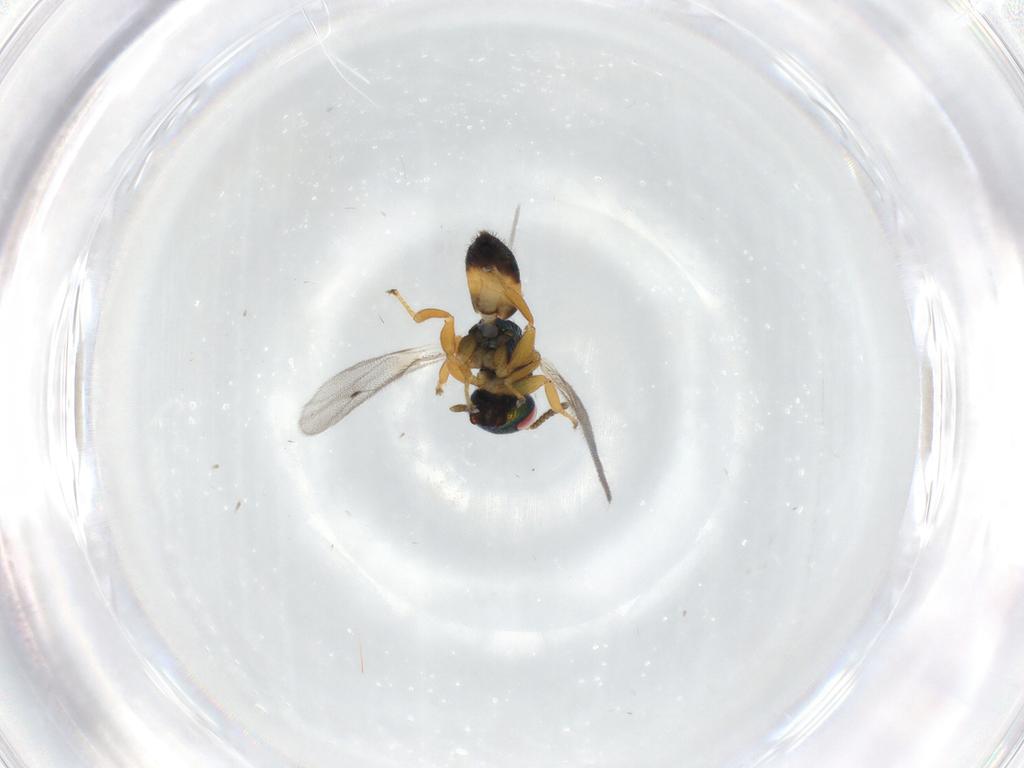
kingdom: Animalia
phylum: Arthropoda
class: Insecta
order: Hymenoptera
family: Pteromalidae
